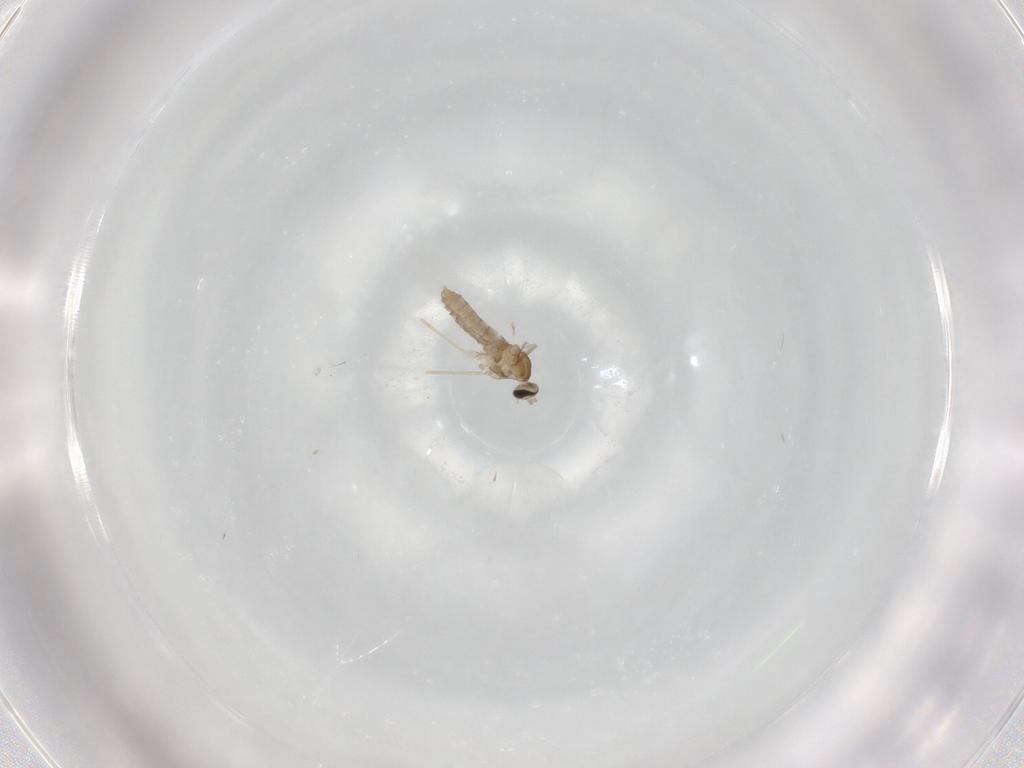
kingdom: Animalia
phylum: Arthropoda
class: Insecta
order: Diptera
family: Cecidomyiidae
